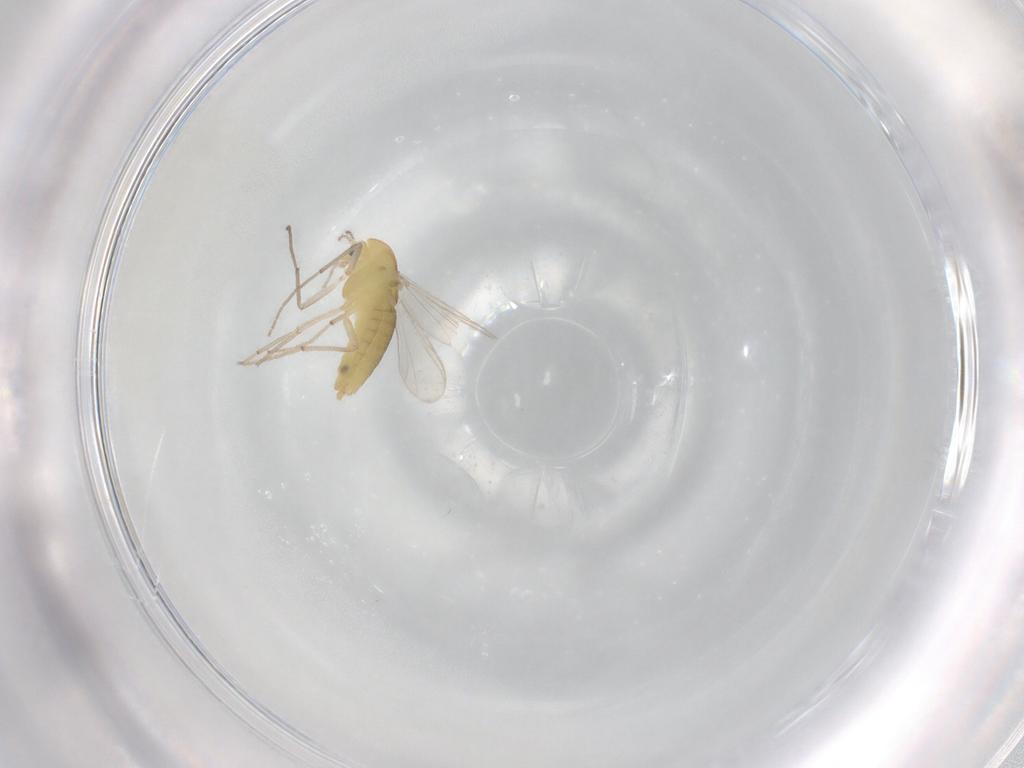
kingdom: Animalia
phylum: Arthropoda
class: Insecta
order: Diptera
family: Chironomidae
